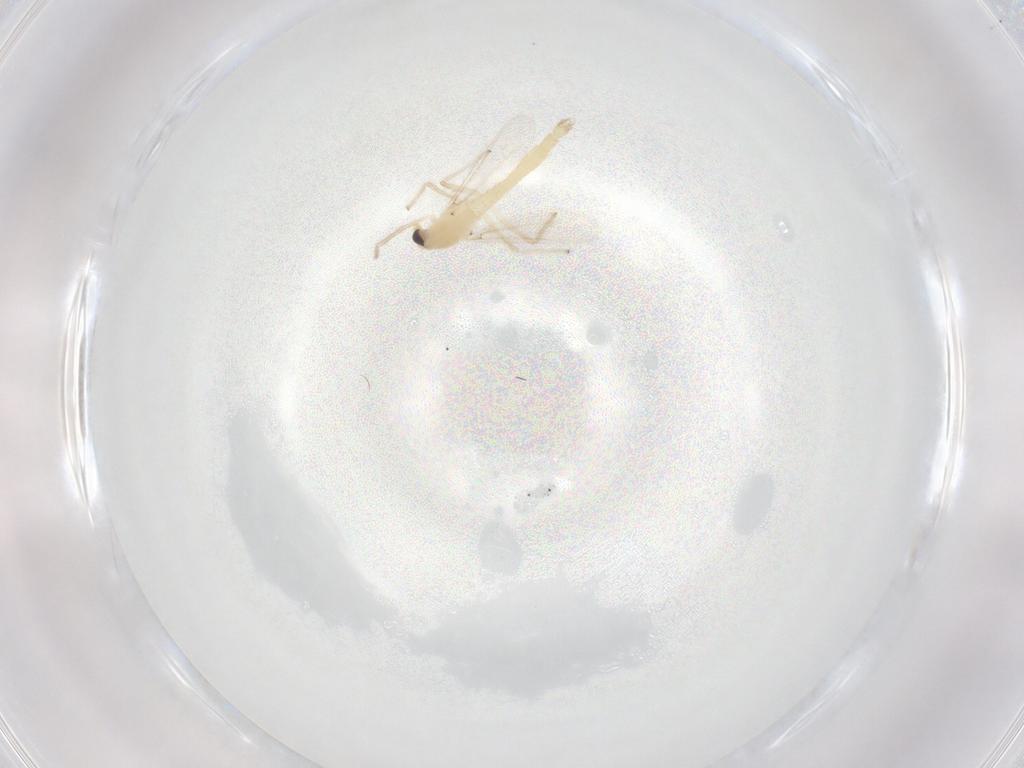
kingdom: Animalia
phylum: Arthropoda
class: Insecta
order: Diptera
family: Chironomidae
